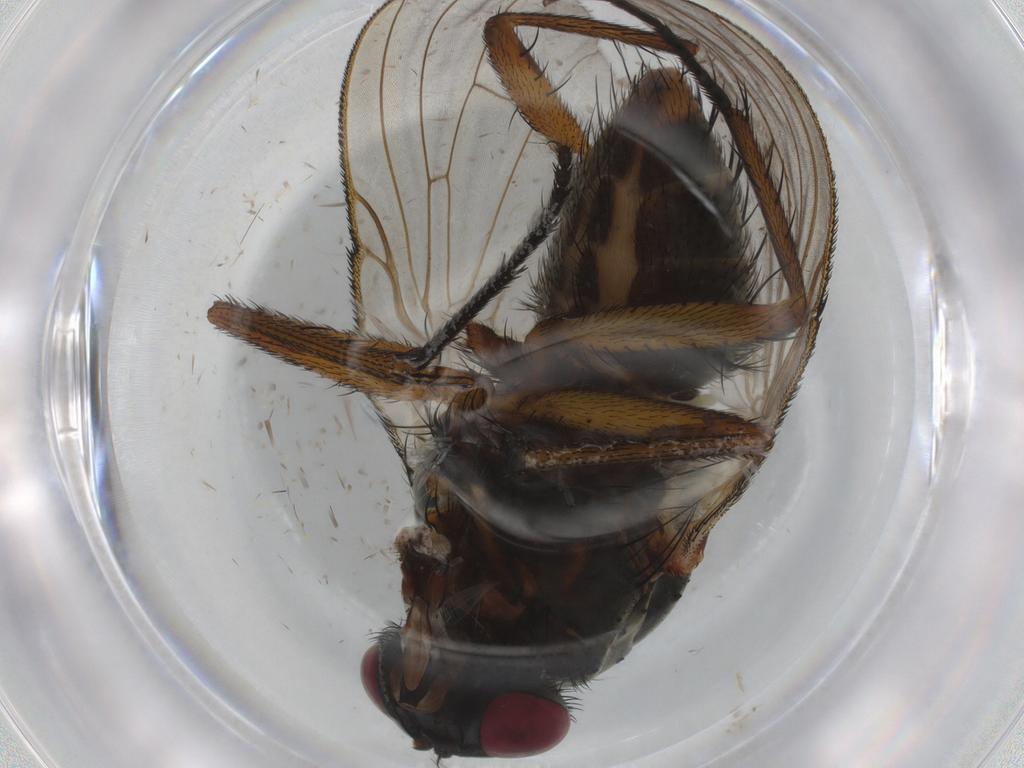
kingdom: Animalia
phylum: Arthropoda
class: Insecta
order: Diptera
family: Muscidae
